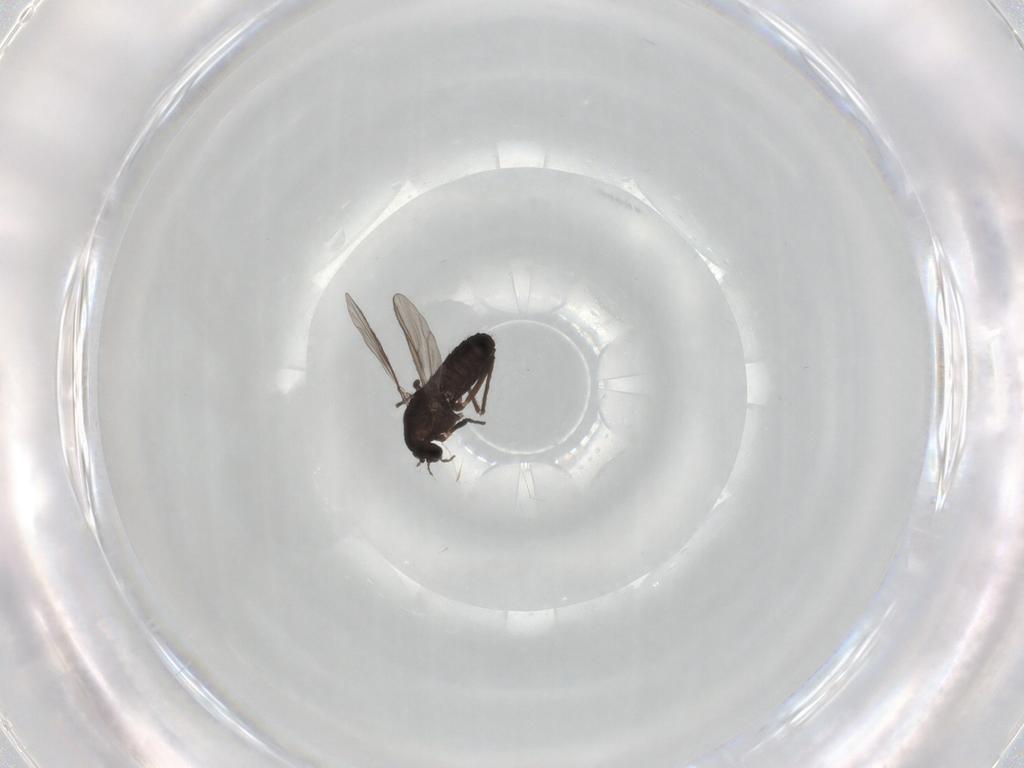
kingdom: Animalia
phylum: Arthropoda
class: Insecta
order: Diptera
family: Chironomidae
